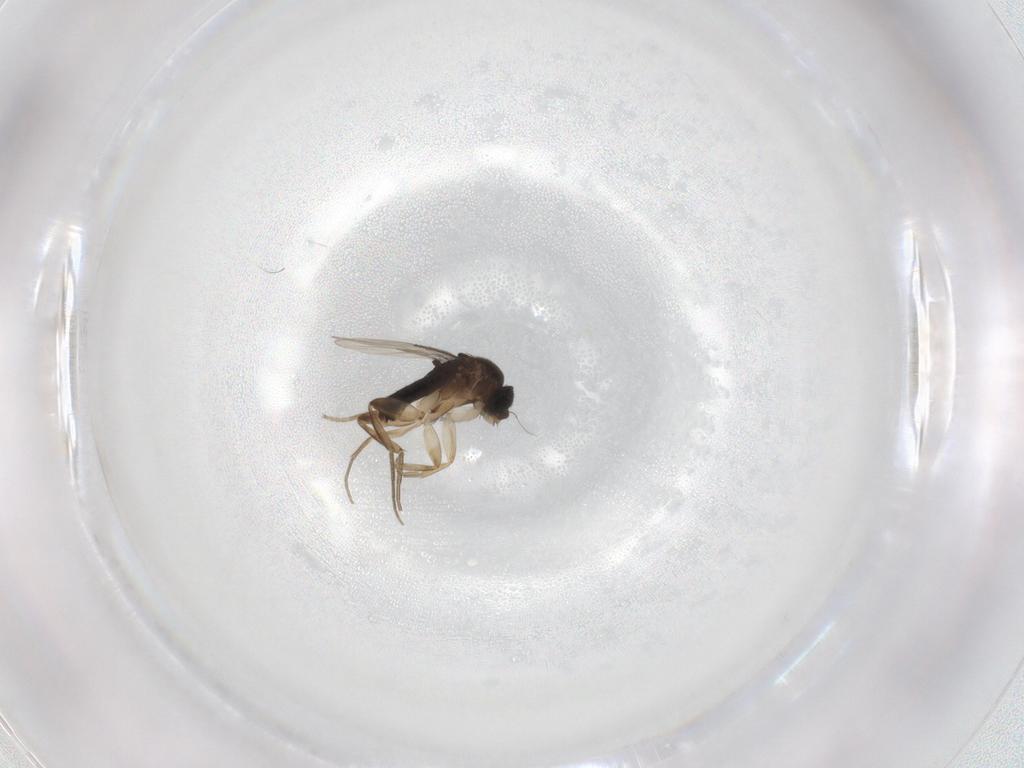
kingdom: Animalia
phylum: Arthropoda
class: Insecta
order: Diptera
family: Phoridae
